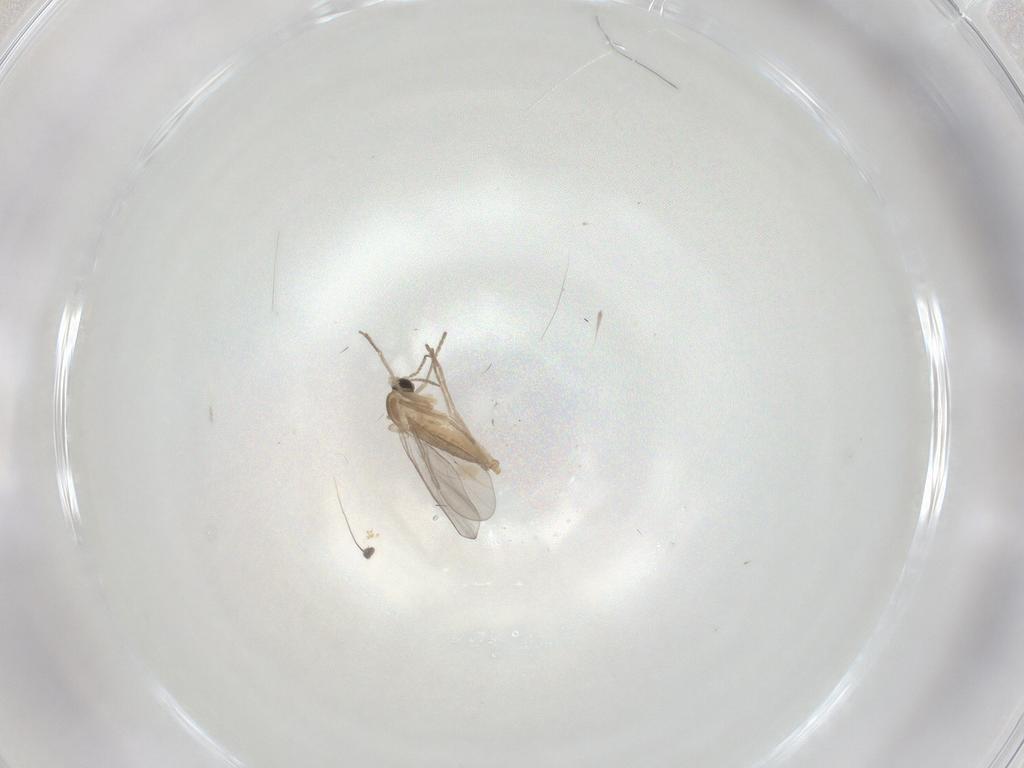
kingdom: Animalia
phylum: Arthropoda
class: Insecta
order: Diptera
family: Cecidomyiidae
